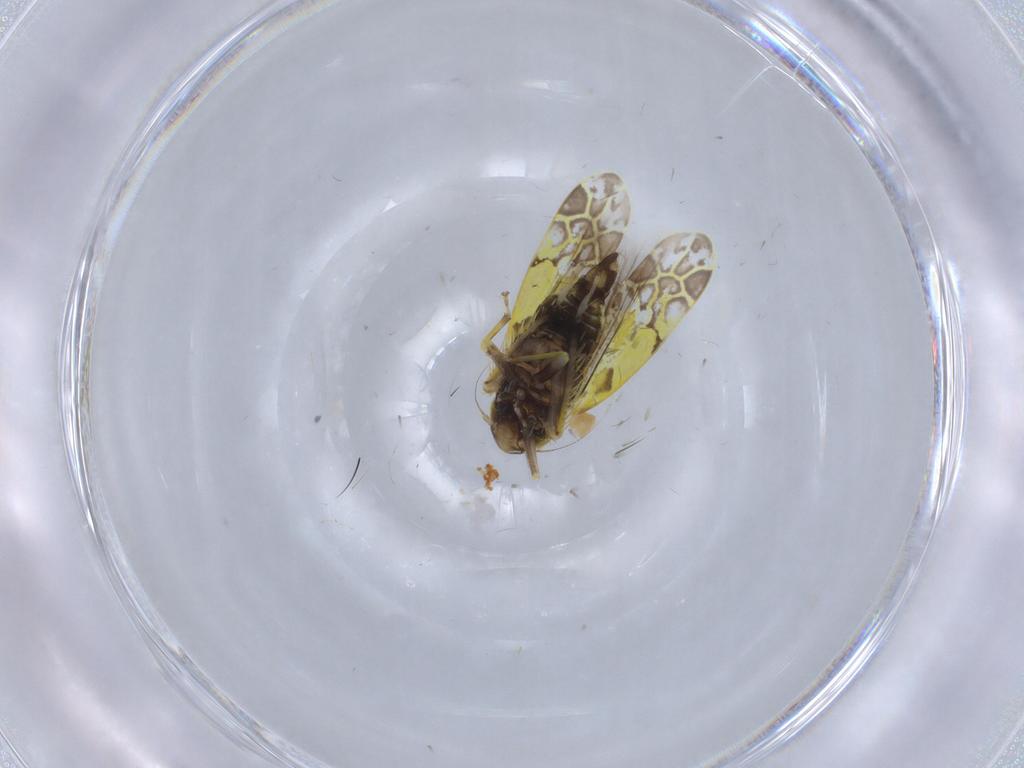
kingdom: Animalia
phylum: Arthropoda
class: Insecta
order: Hemiptera
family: Cicadellidae
